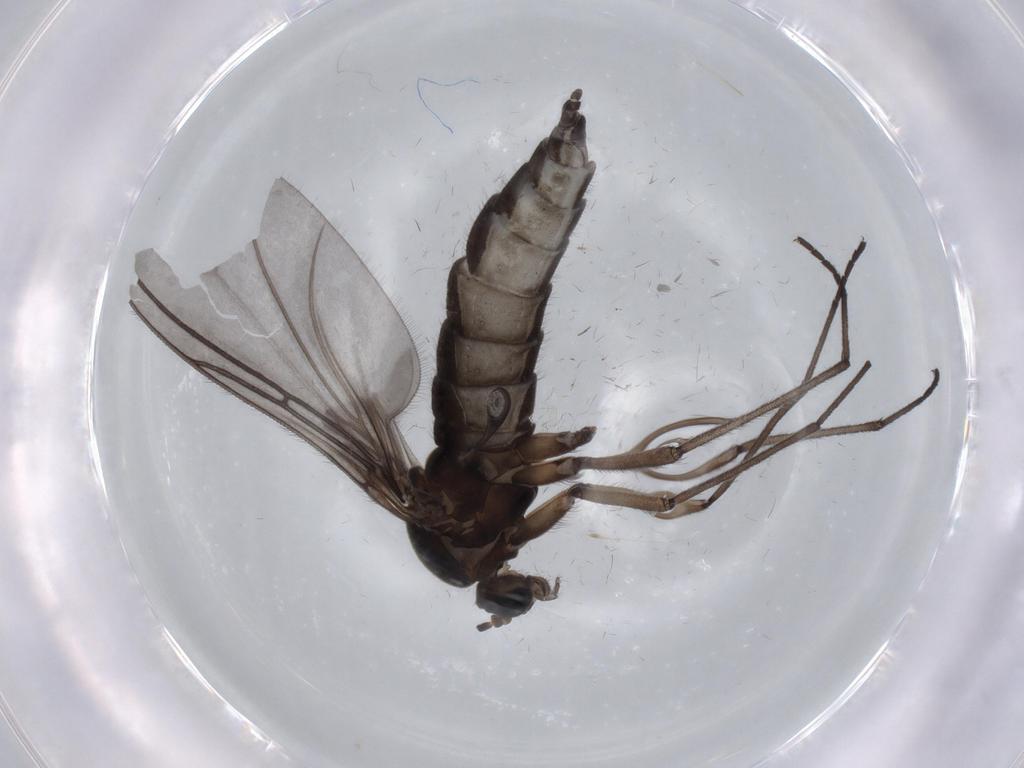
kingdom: Animalia
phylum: Arthropoda
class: Insecta
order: Diptera
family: Sciaridae
